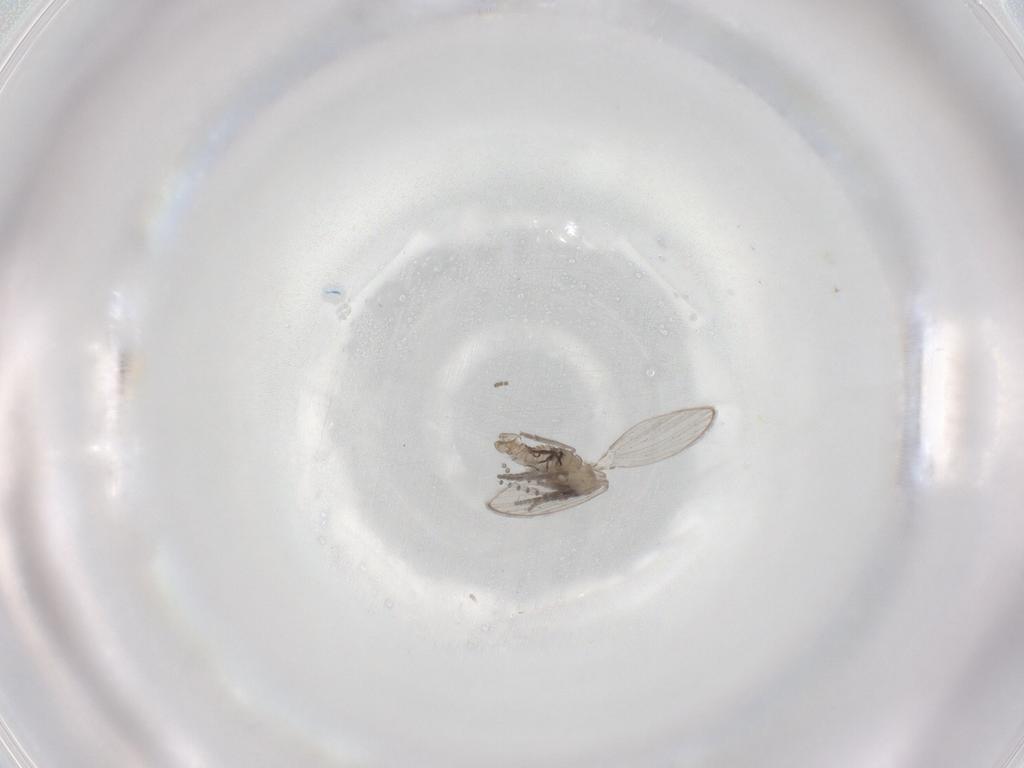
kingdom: Animalia
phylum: Arthropoda
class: Insecta
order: Diptera
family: Psychodidae
